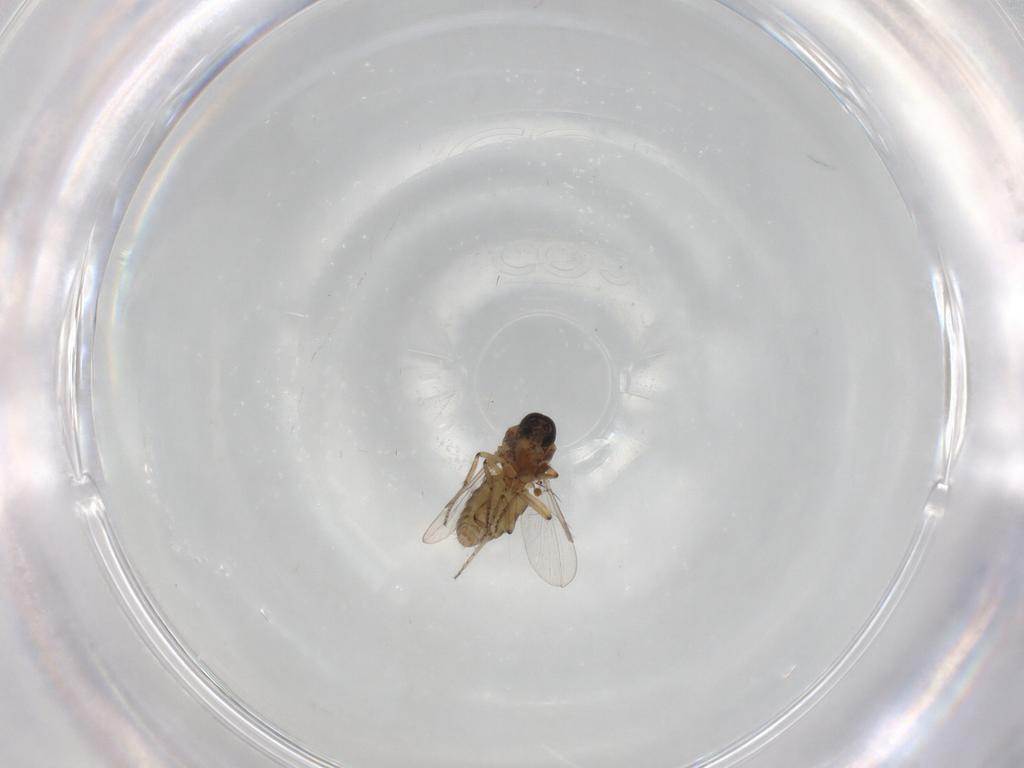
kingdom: Animalia
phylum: Arthropoda
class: Insecta
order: Diptera
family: Ceratopogonidae
